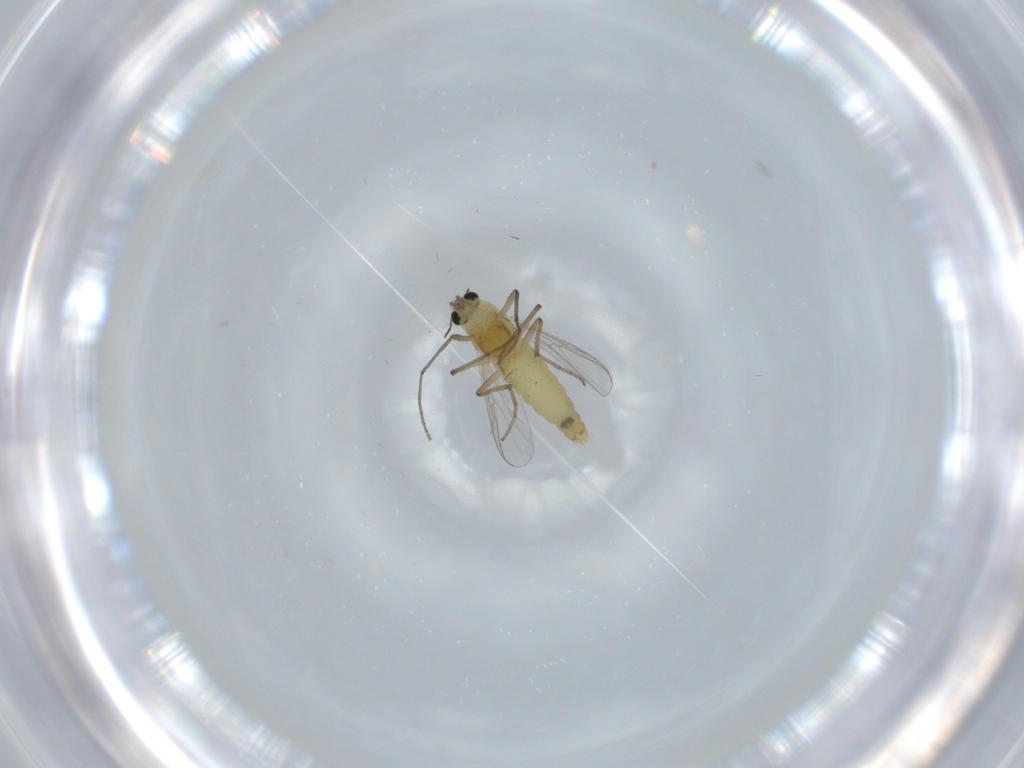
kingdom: Animalia
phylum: Arthropoda
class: Insecta
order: Diptera
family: Chironomidae
